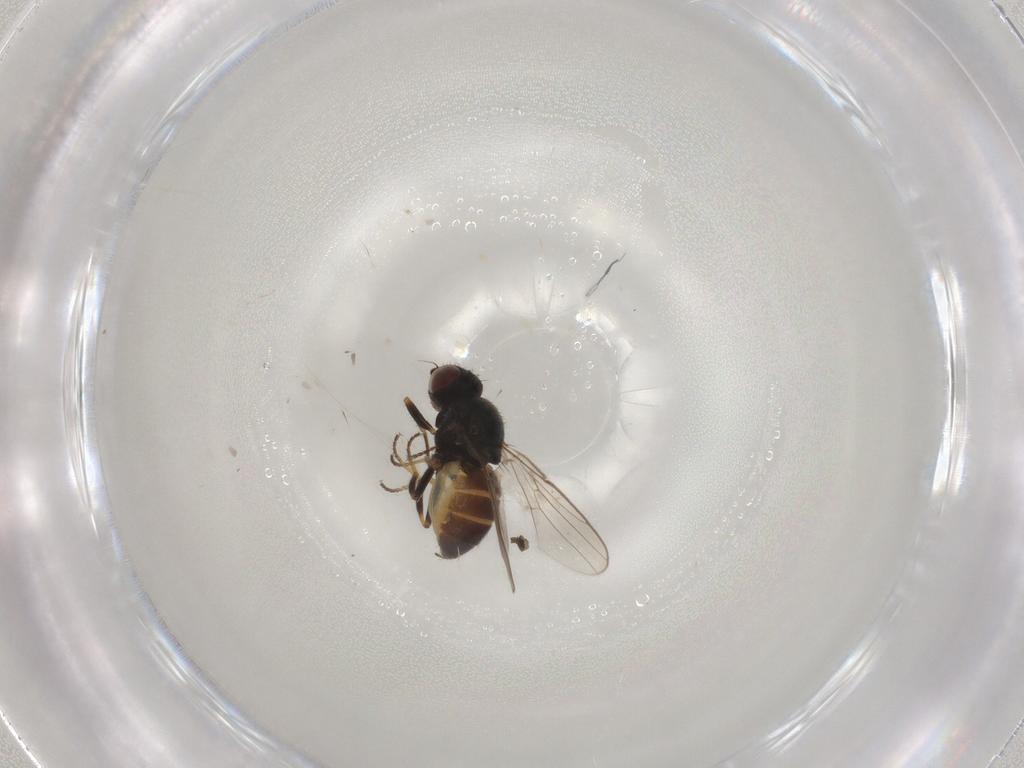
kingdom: Animalia
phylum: Arthropoda
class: Insecta
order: Diptera
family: Chloropidae
